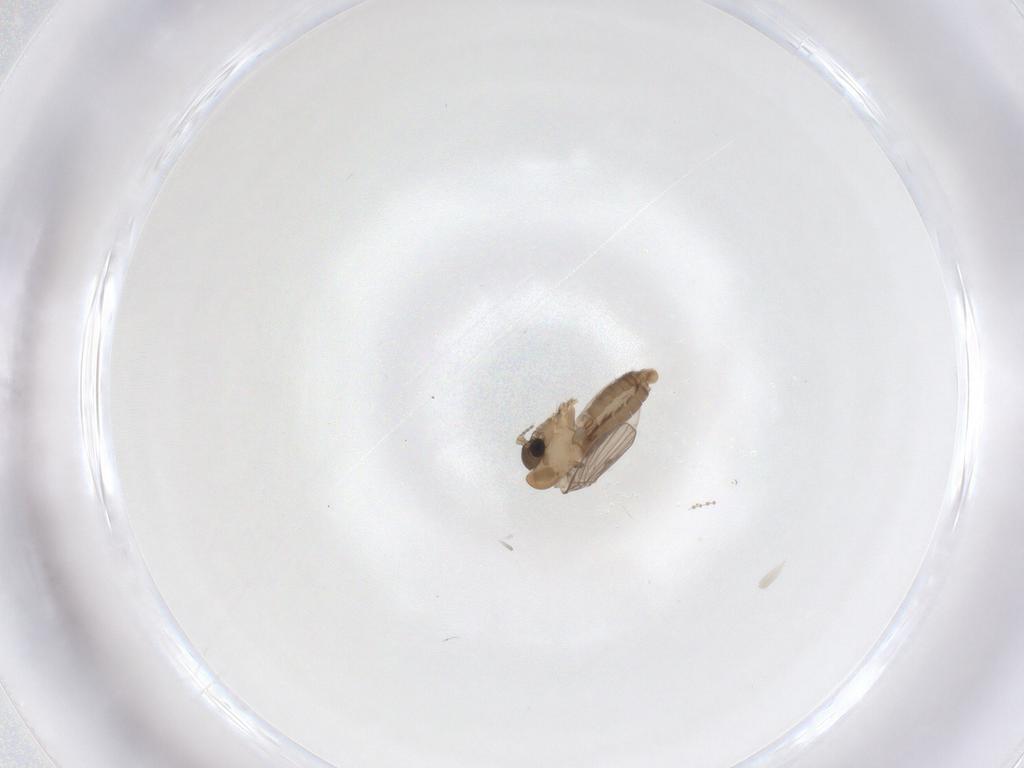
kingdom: Animalia
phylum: Arthropoda
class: Insecta
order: Diptera
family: Cecidomyiidae
